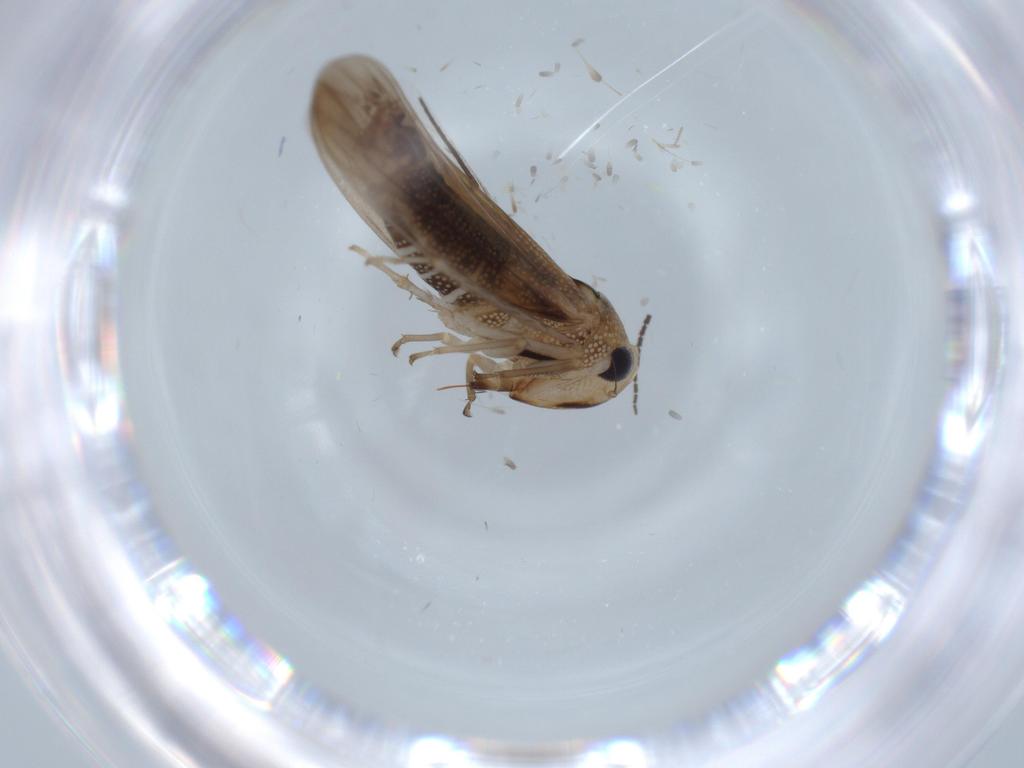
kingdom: Animalia
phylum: Arthropoda
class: Insecta
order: Hemiptera
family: Cicadellidae
